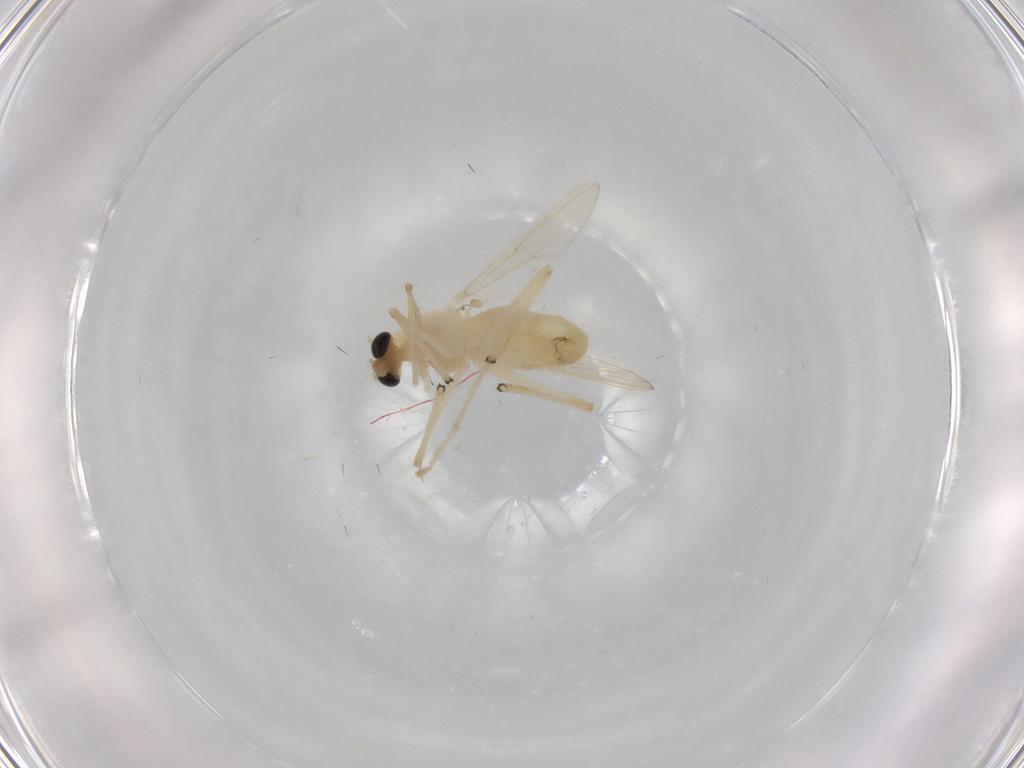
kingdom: Animalia
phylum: Arthropoda
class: Insecta
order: Diptera
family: Chironomidae
